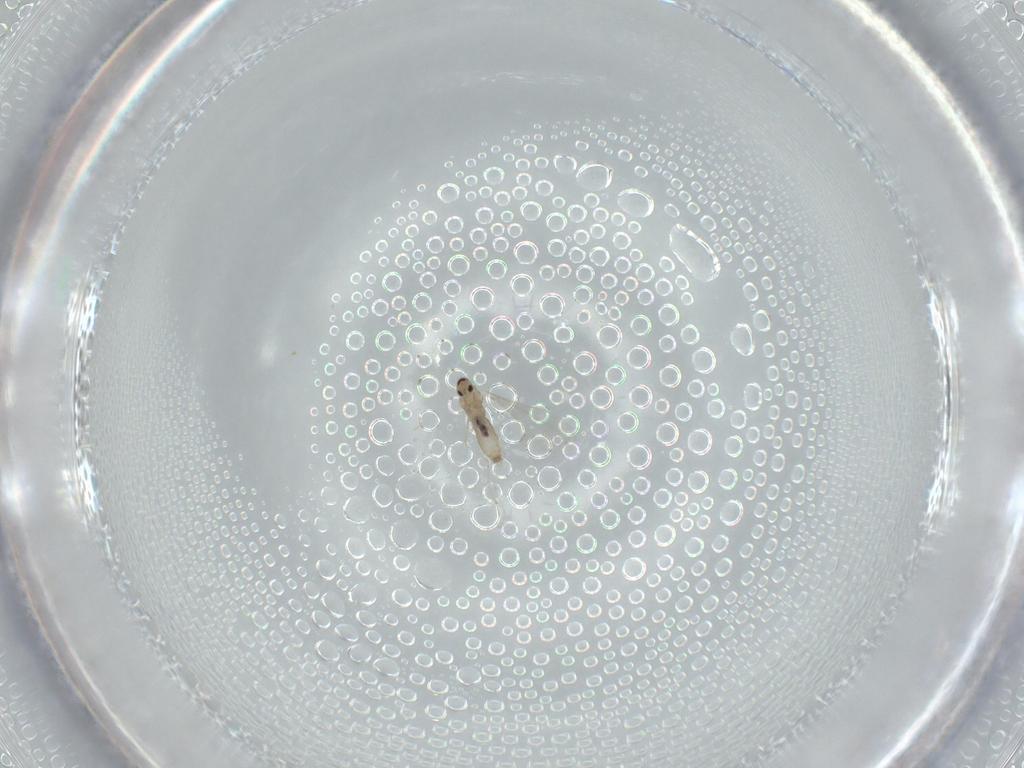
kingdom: Animalia
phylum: Arthropoda
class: Insecta
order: Diptera
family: Cecidomyiidae
